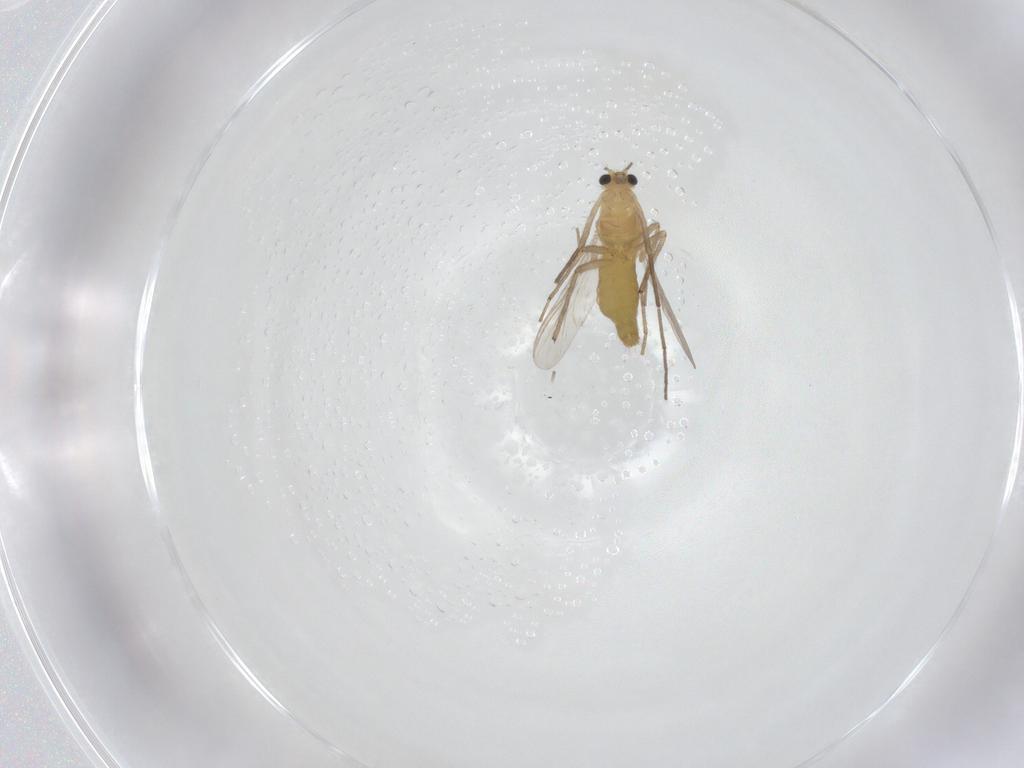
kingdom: Animalia
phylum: Arthropoda
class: Insecta
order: Diptera
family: Chironomidae
